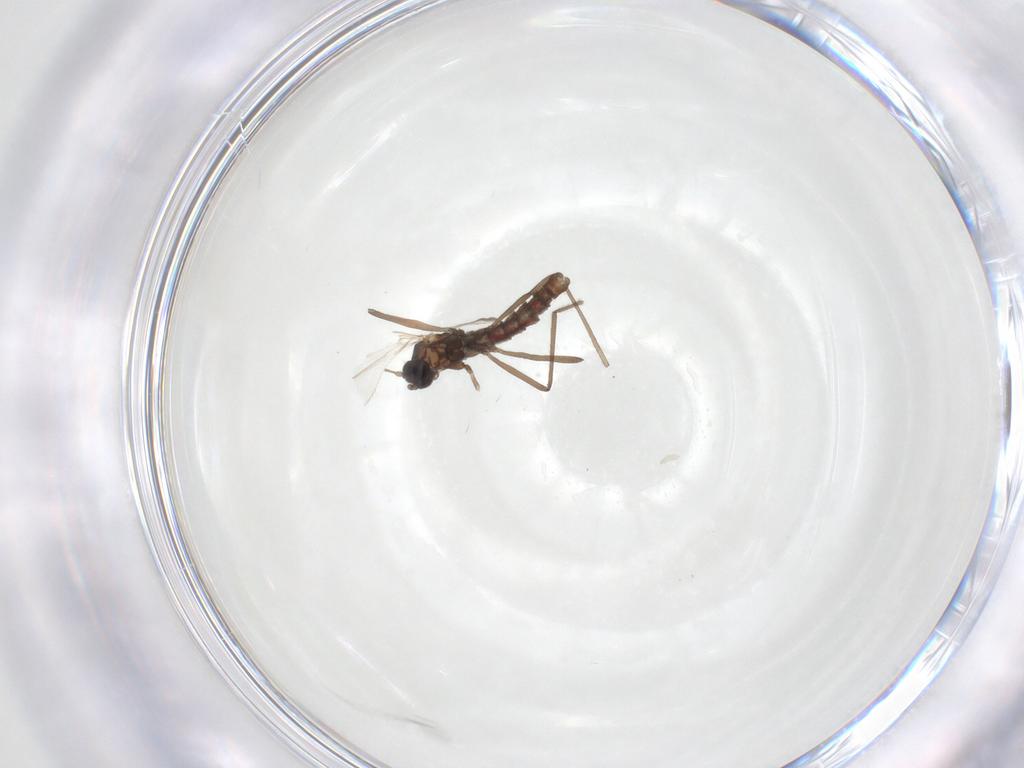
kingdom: Animalia
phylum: Arthropoda
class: Insecta
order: Diptera
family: Cecidomyiidae
